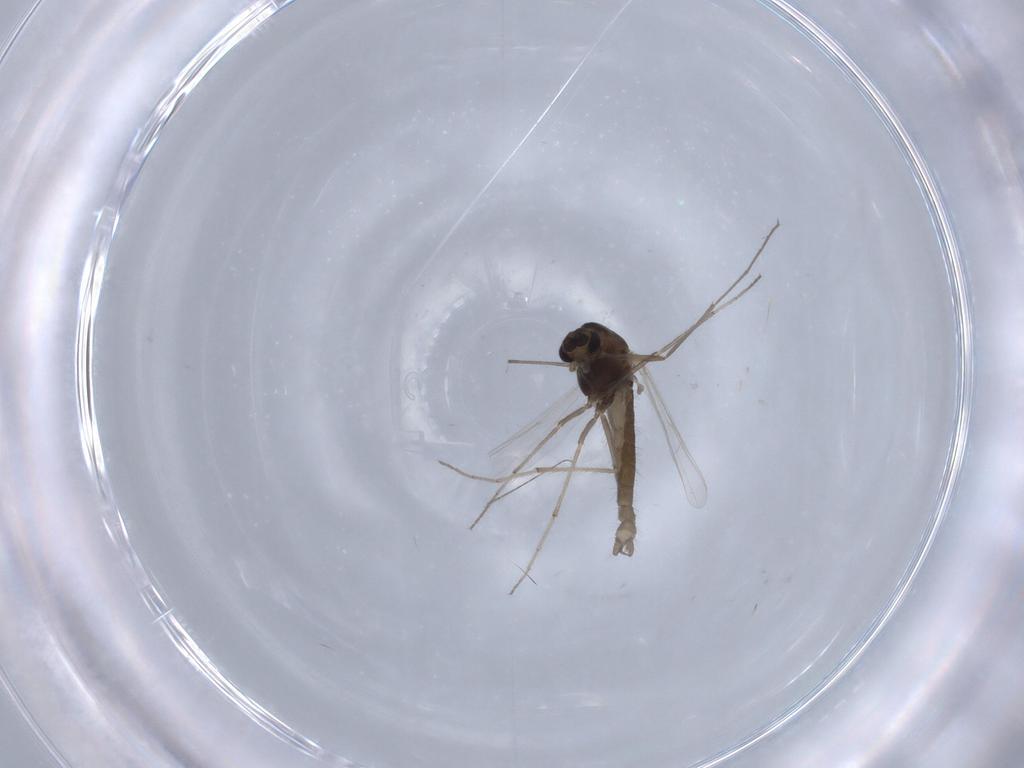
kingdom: Animalia
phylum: Arthropoda
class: Insecta
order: Diptera
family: Chironomidae
